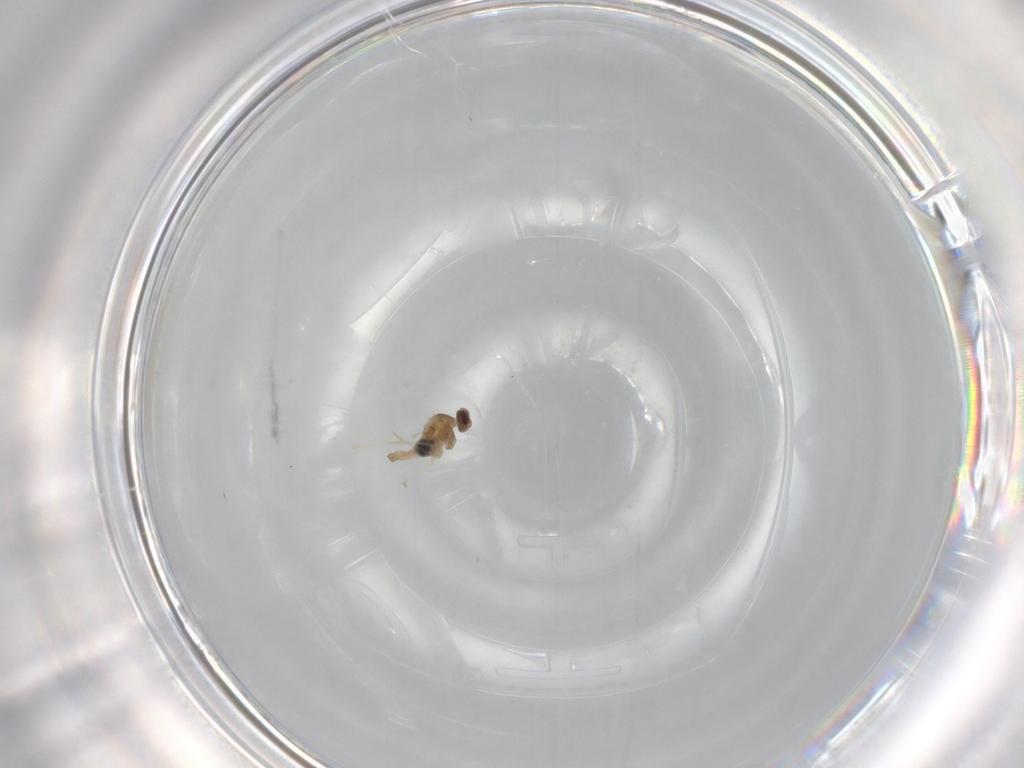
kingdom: Animalia
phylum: Arthropoda
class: Insecta
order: Diptera
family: Cecidomyiidae
